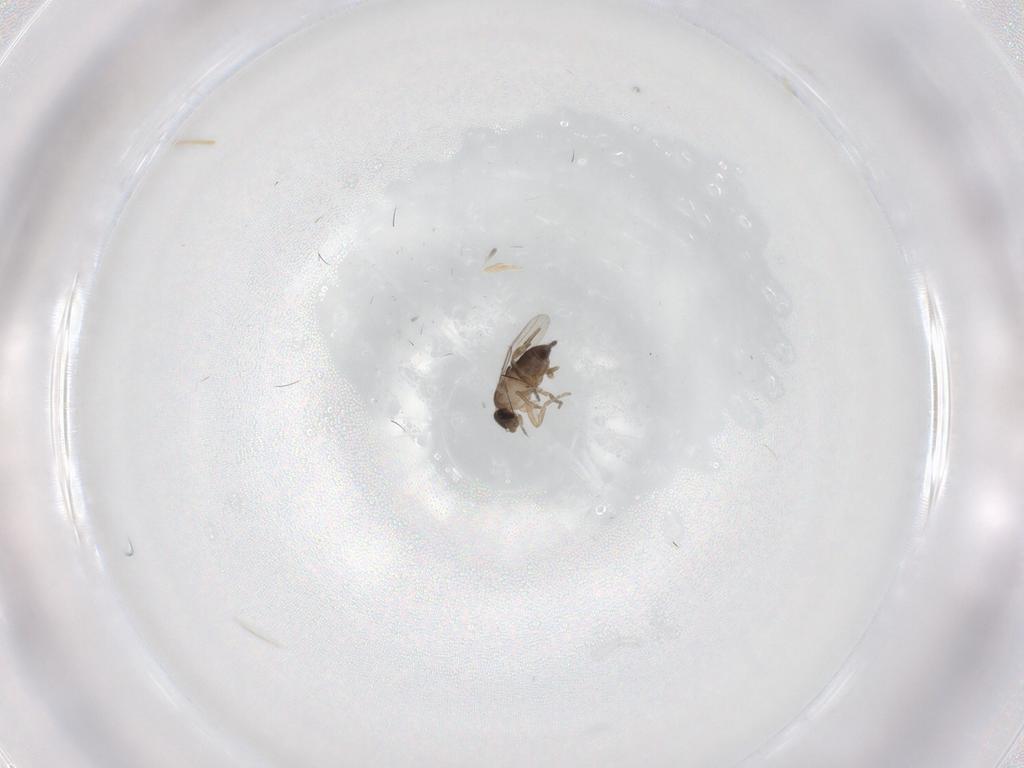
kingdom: Animalia
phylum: Arthropoda
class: Insecta
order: Diptera
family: Sciaridae
